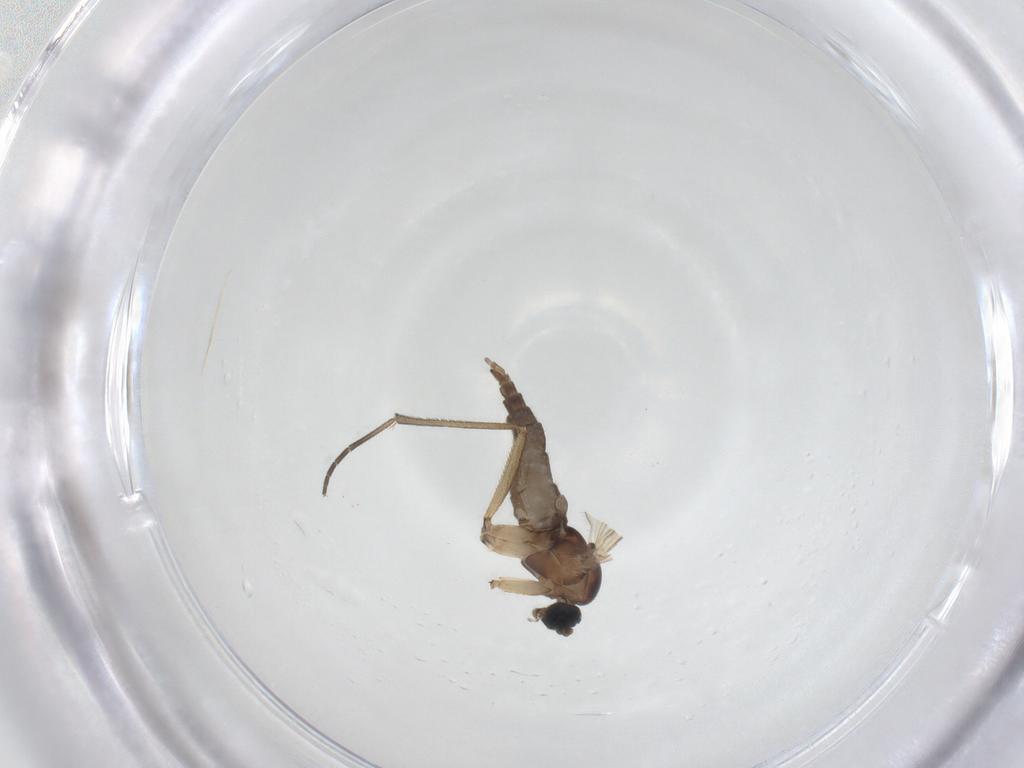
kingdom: Animalia
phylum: Arthropoda
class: Insecta
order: Diptera
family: Sciaridae
